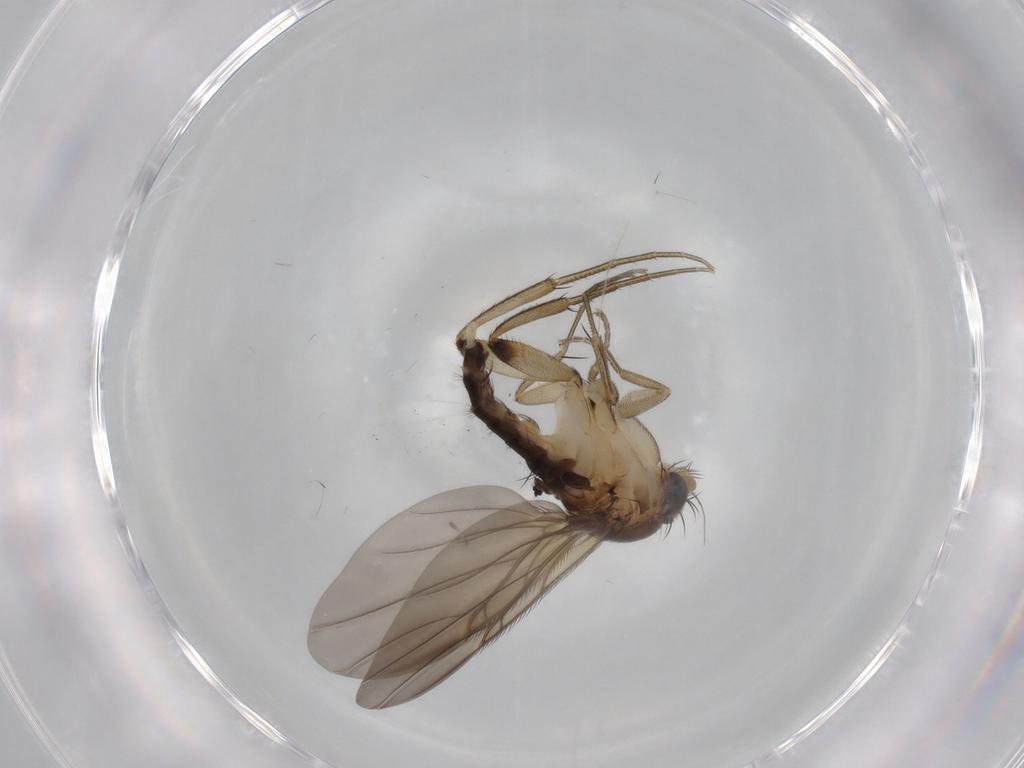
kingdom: Animalia
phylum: Arthropoda
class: Insecta
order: Diptera
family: Phoridae
